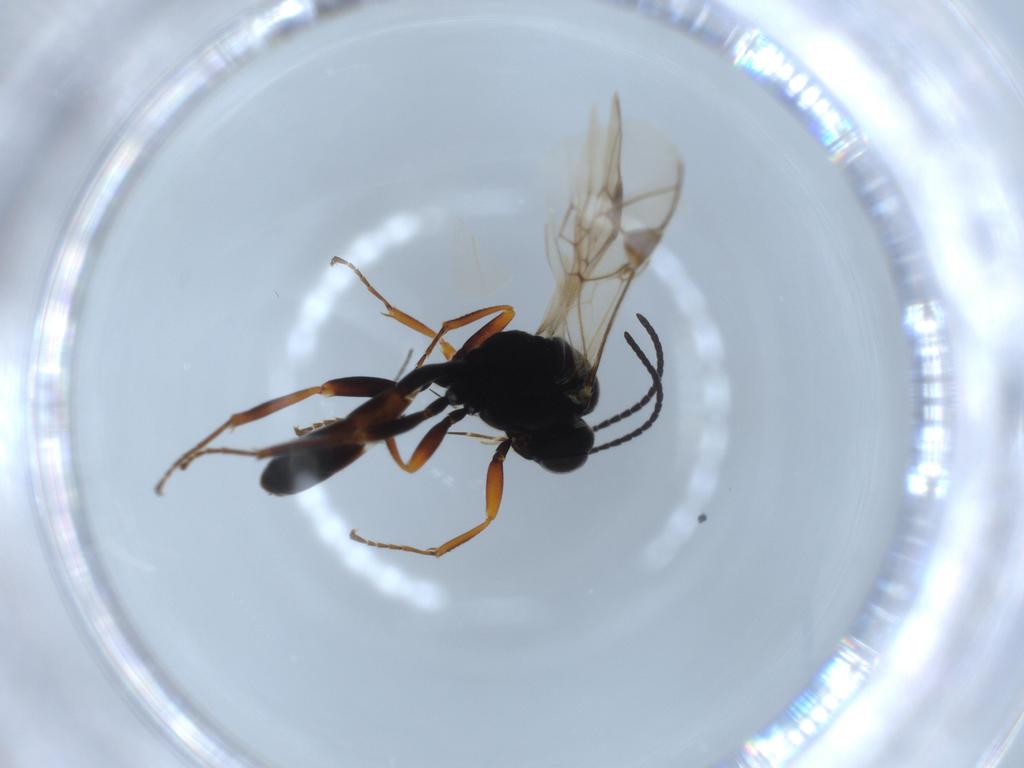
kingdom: Animalia
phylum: Arthropoda
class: Insecta
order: Hymenoptera
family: Ichneumonidae
